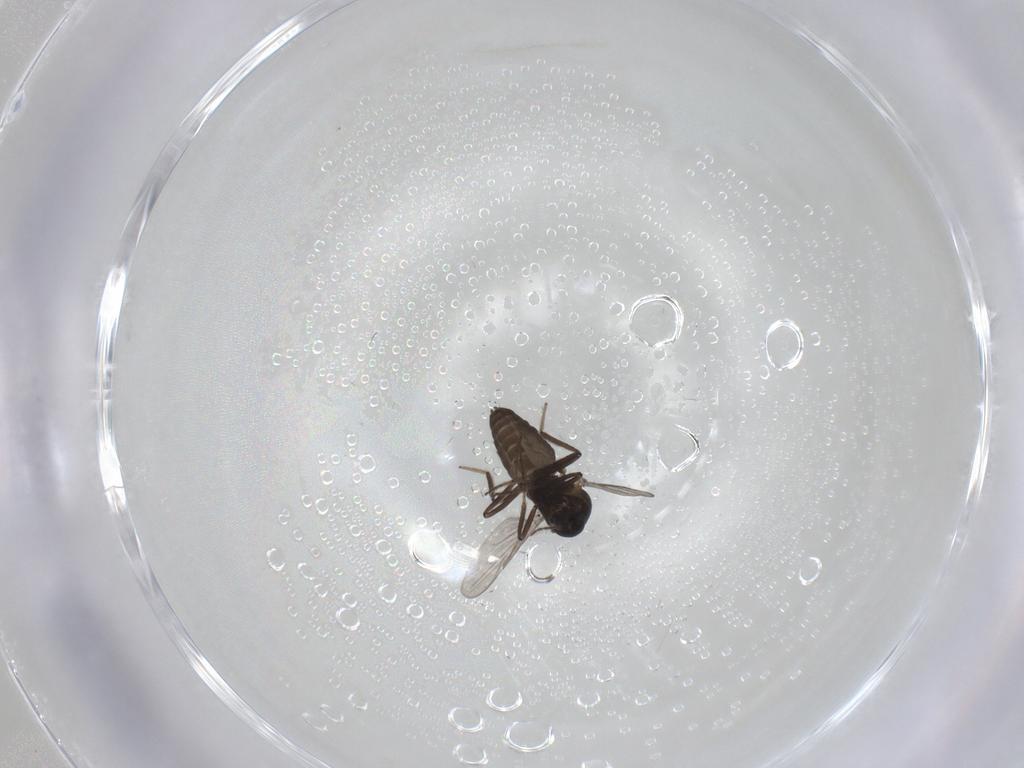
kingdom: Animalia
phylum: Arthropoda
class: Insecta
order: Diptera
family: Ceratopogonidae
